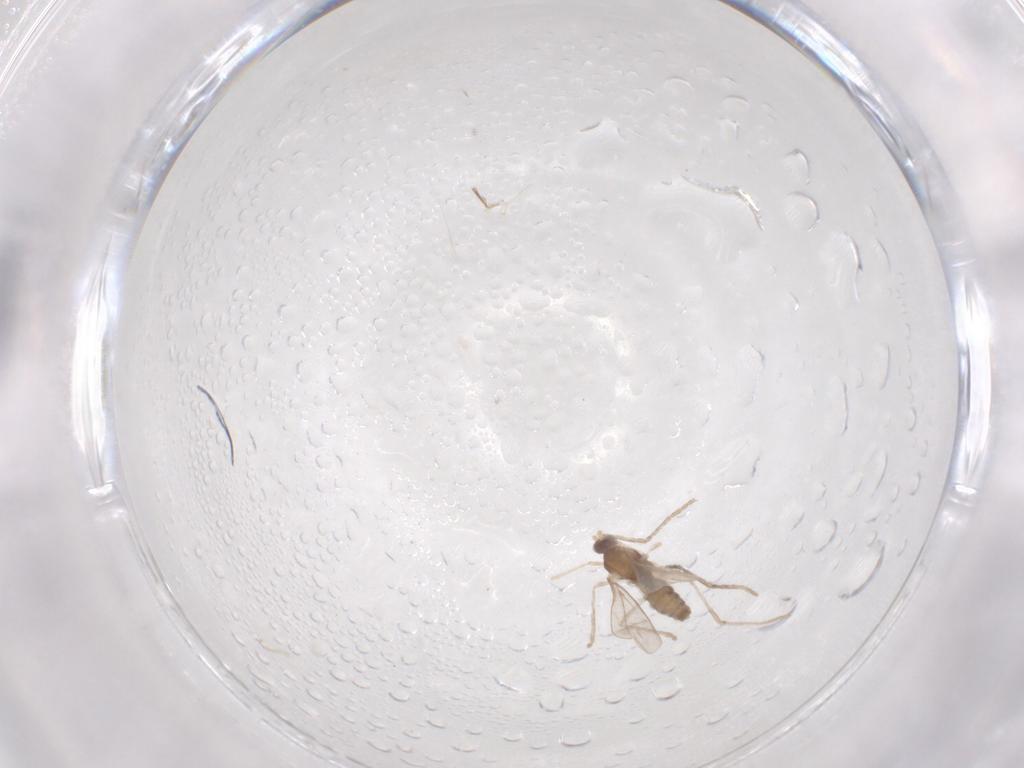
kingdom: Animalia
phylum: Arthropoda
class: Insecta
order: Diptera
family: Cecidomyiidae
